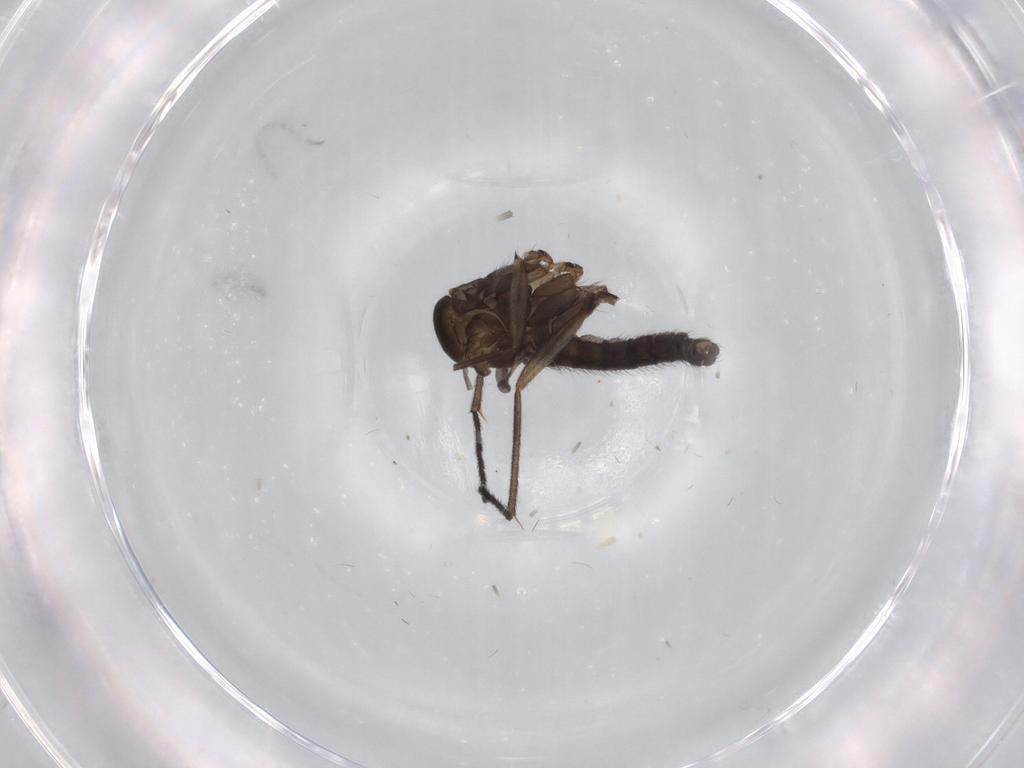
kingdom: Animalia
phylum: Arthropoda
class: Insecta
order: Diptera
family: Sciaridae
